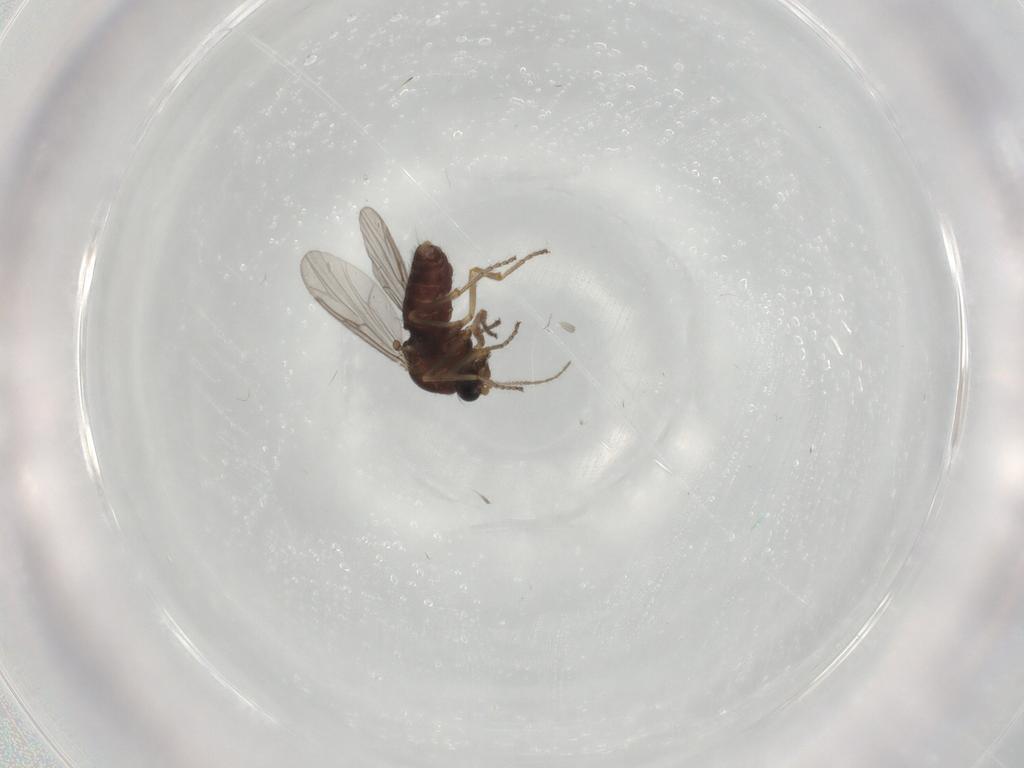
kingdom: Animalia
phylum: Arthropoda
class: Insecta
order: Diptera
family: Ceratopogonidae
